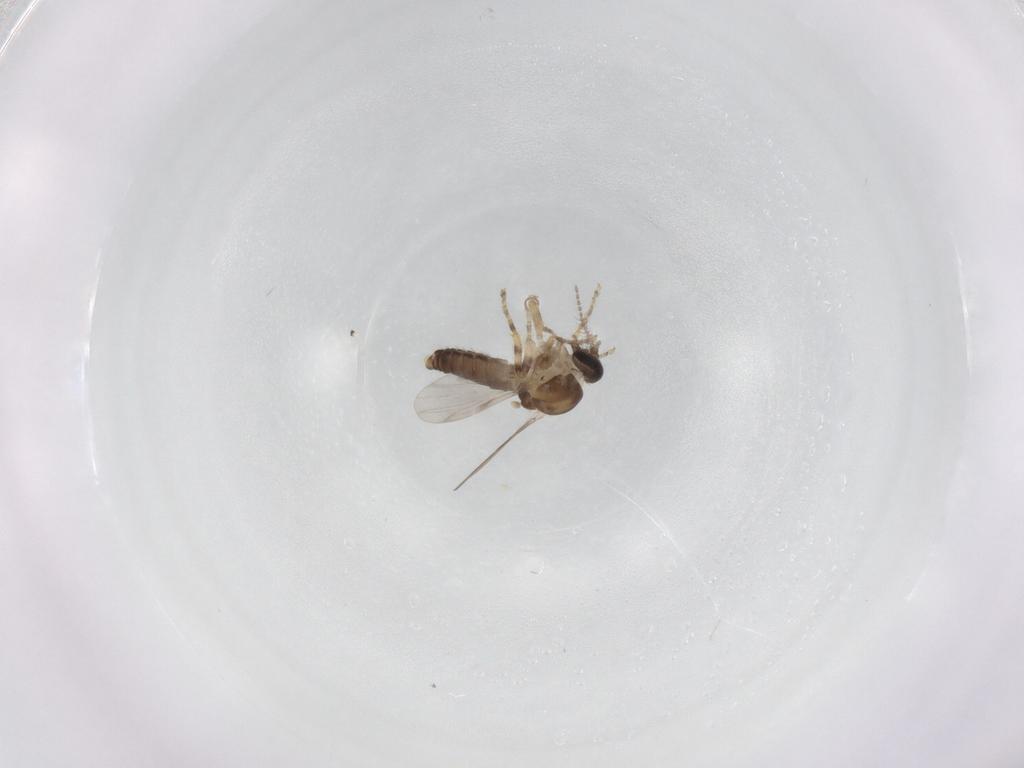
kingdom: Animalia
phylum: Arthropoda
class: Insecta
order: Diptera
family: Ceratopogonidae
